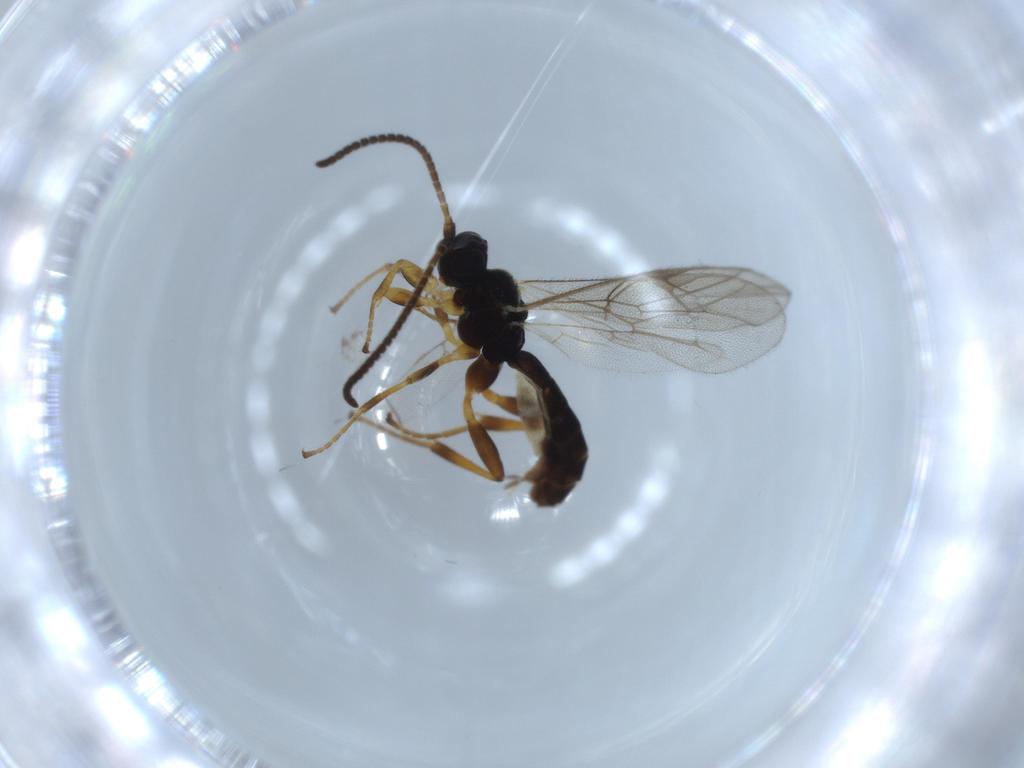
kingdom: Animalia
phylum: Arthropoda
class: Insecta
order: Hymenoptera
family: Ichneumonidae
